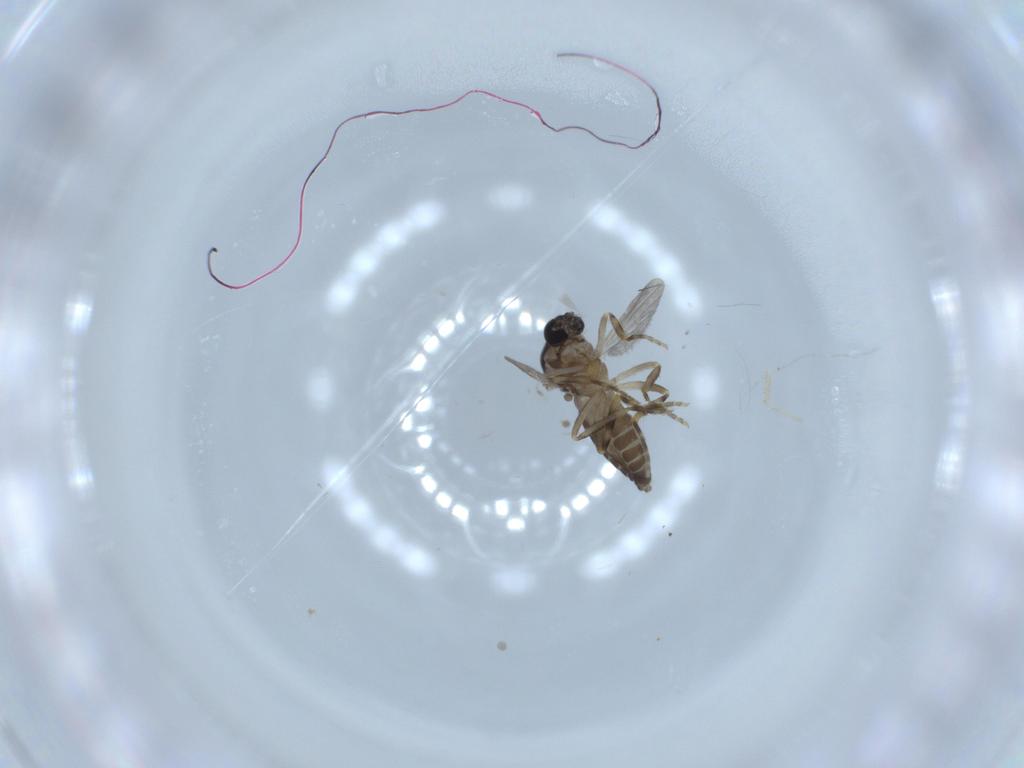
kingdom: Animalia
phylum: Arthropoda
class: Insecta
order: Diptera
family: Ceratopogonidae
